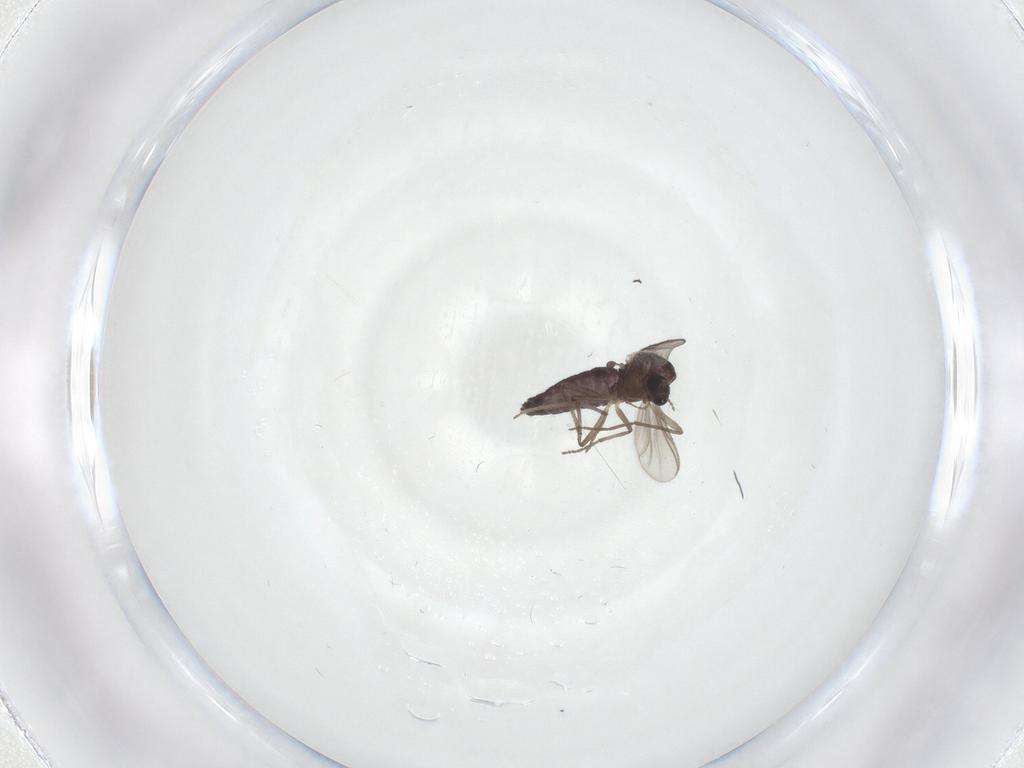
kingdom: Animalia
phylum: Arthropoda
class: Insecta
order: Diptera
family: Chironomidae
